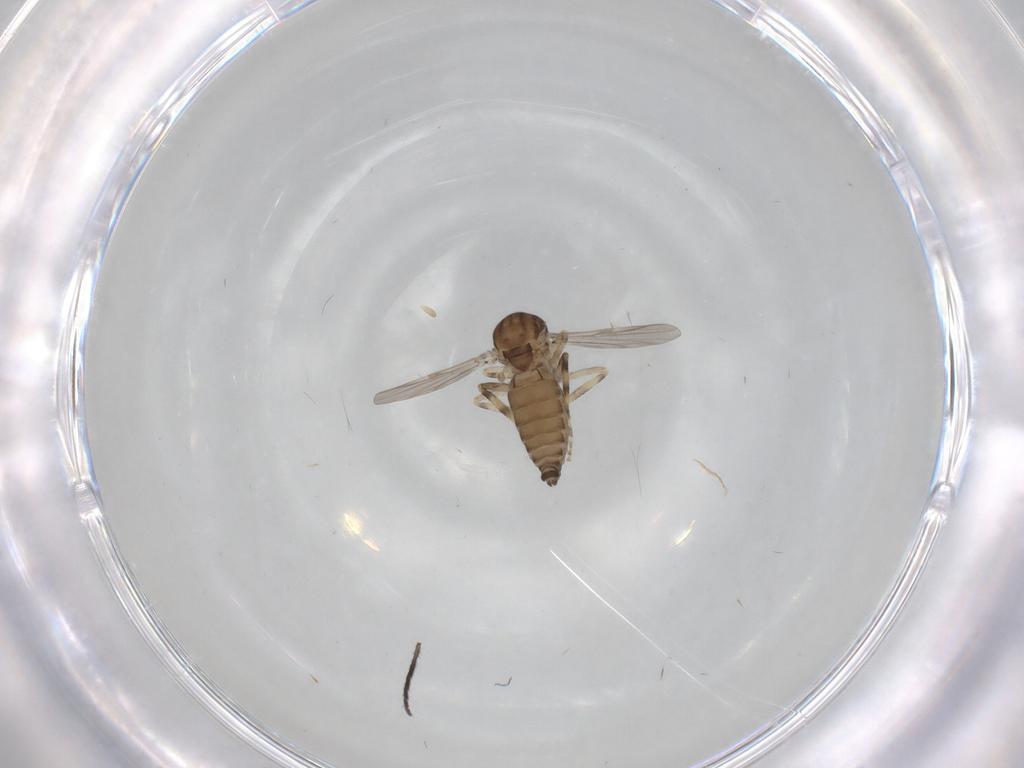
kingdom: Animalia
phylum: Arthropoda
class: Insecta
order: Diptera
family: Ceratopogonidae
